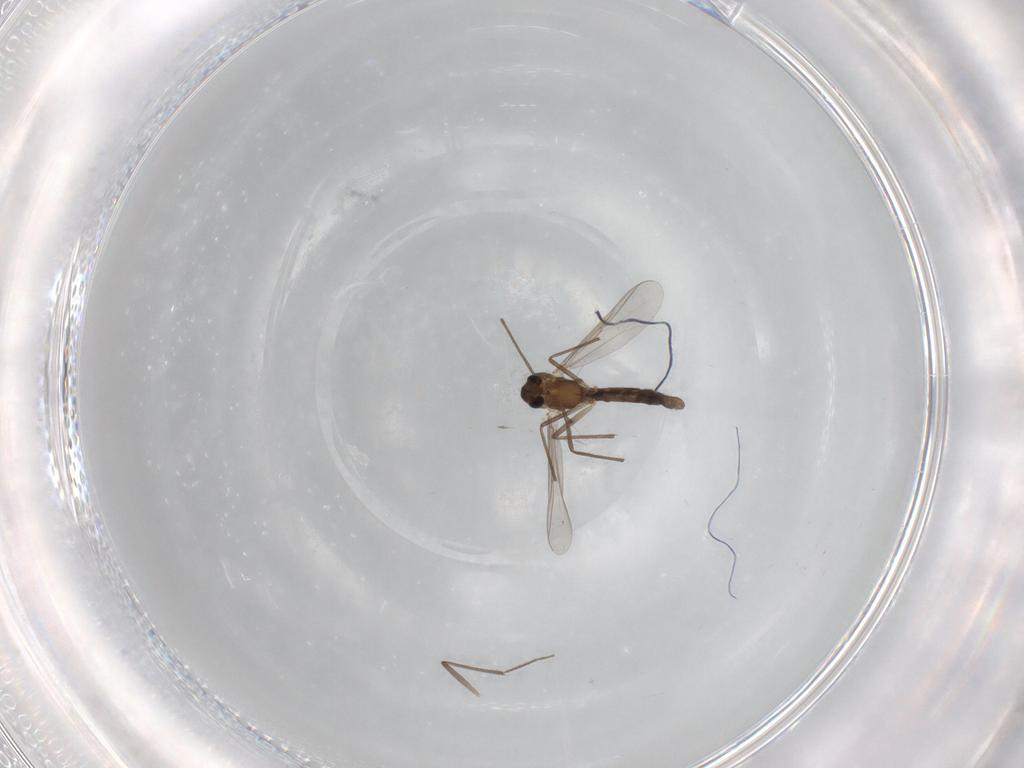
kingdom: Animalia
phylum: Arthropoda
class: Insecta
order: Diptera
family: Chironomidae
